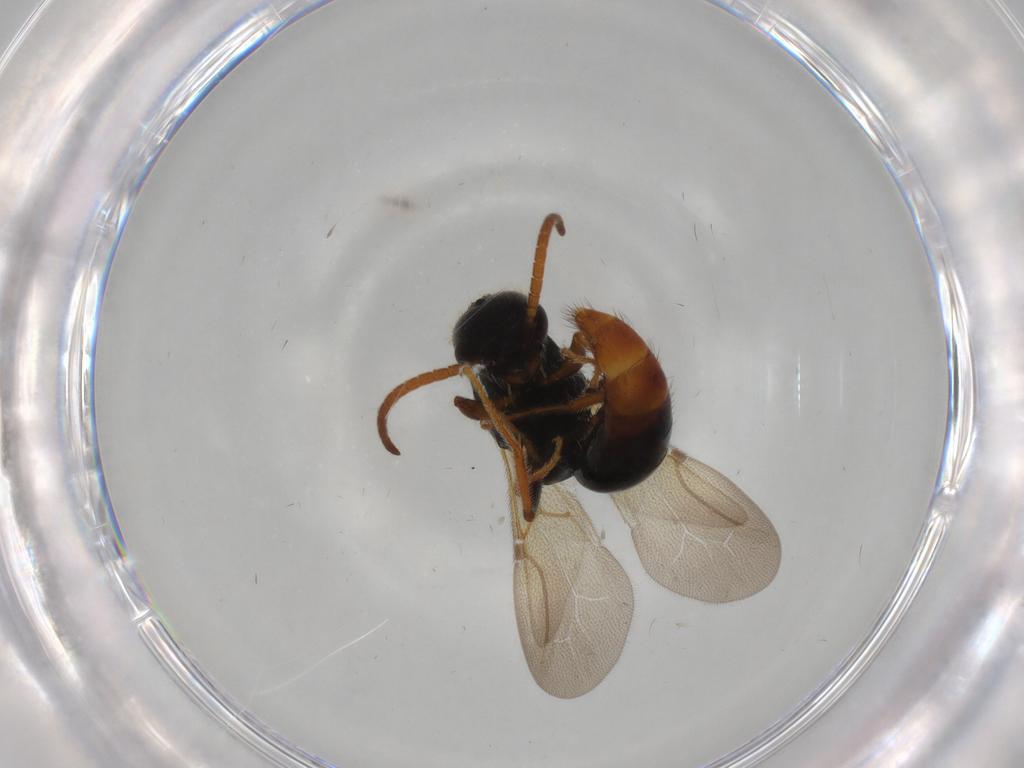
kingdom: Animalia
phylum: Arthropoda
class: Insecta
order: Hymenoptera
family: Bethylidae
